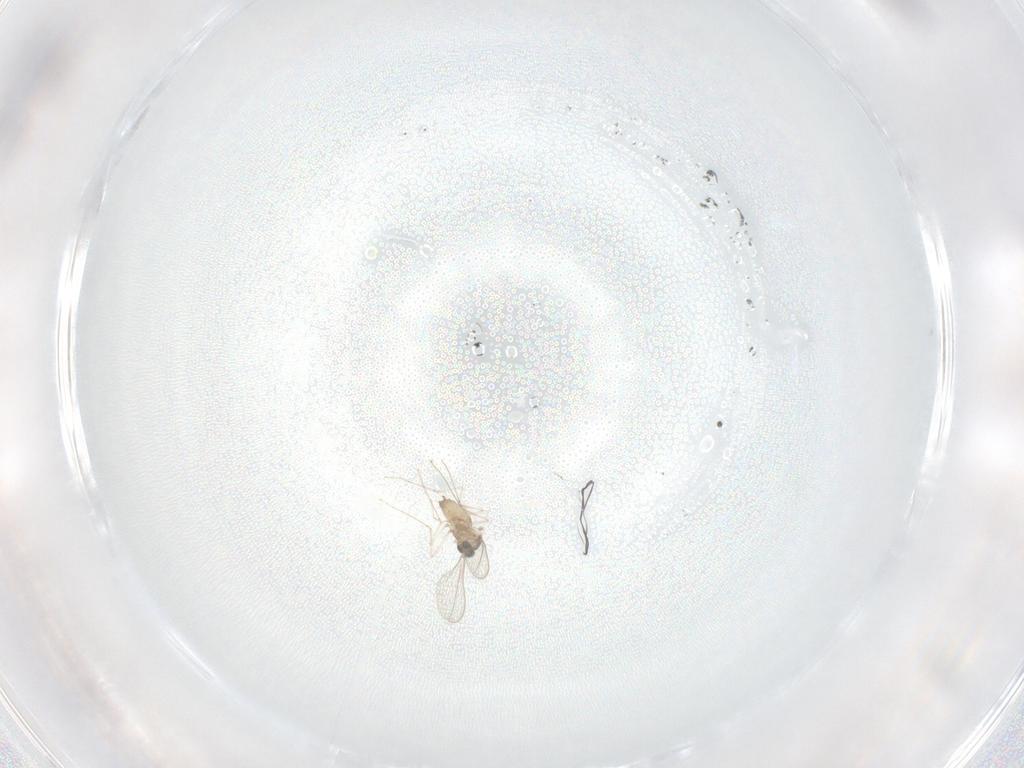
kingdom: Animalia
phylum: Arthropoda
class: Insecta
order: Diptera
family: Cecidomyiidae
